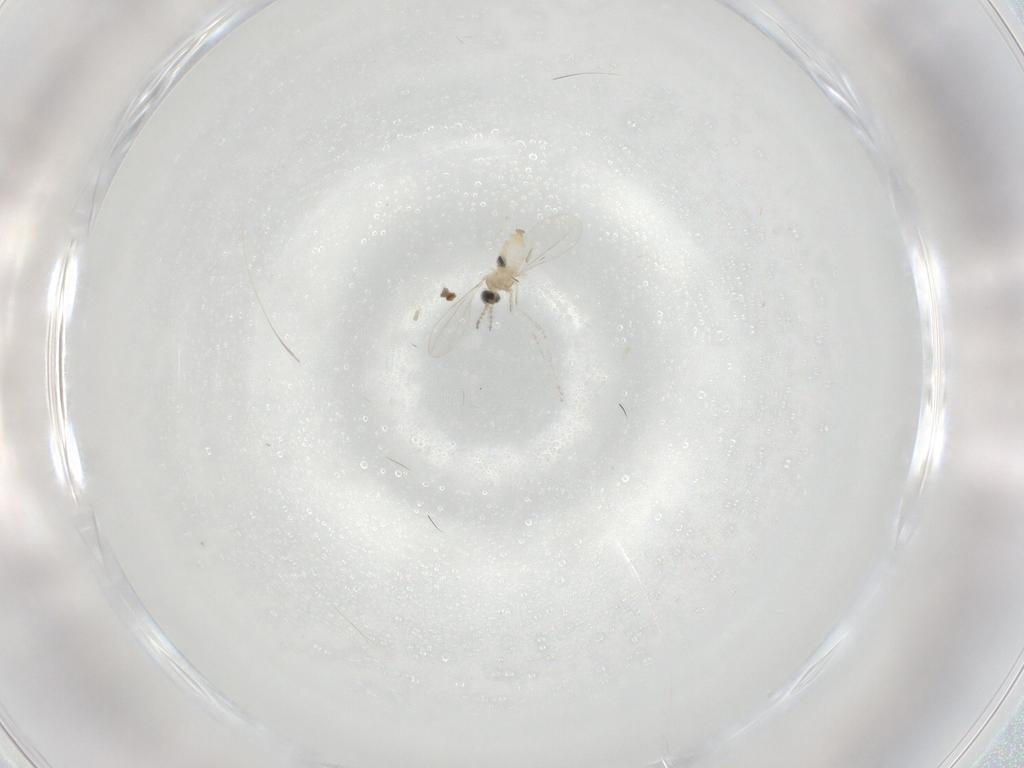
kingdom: Animalia
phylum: Arthropoda
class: Insecta
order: Diptera
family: Cecidomyiidae
